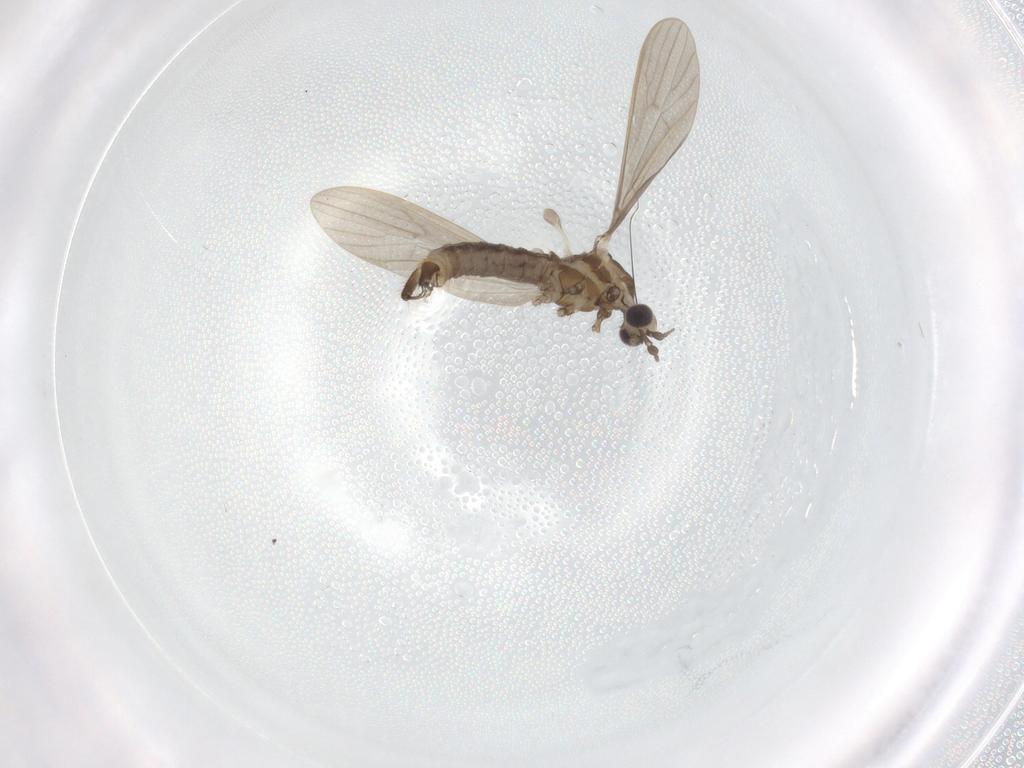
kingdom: Animalia
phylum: Arthropoda
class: Insecta
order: Diptera
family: Limoniidae
